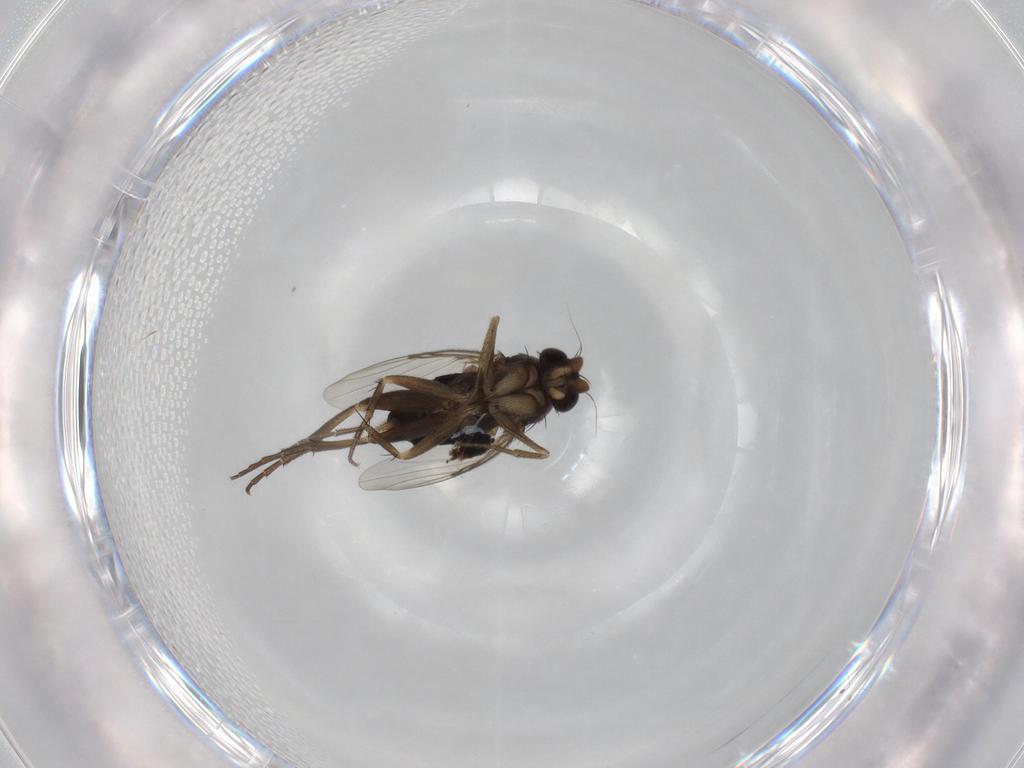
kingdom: Animalia
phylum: Arthropoda
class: Insecta
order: Diptera
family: Phoridae
